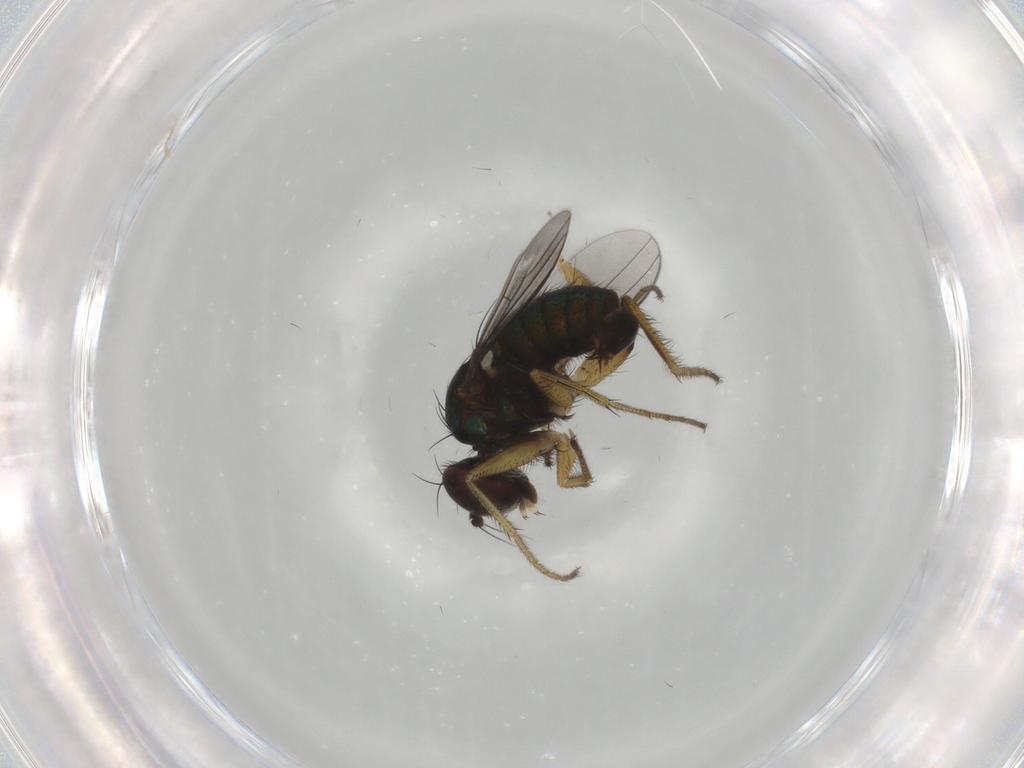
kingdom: Animalia
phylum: Arthropoda
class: Insecta
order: Diptera
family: Dolichopodidae
